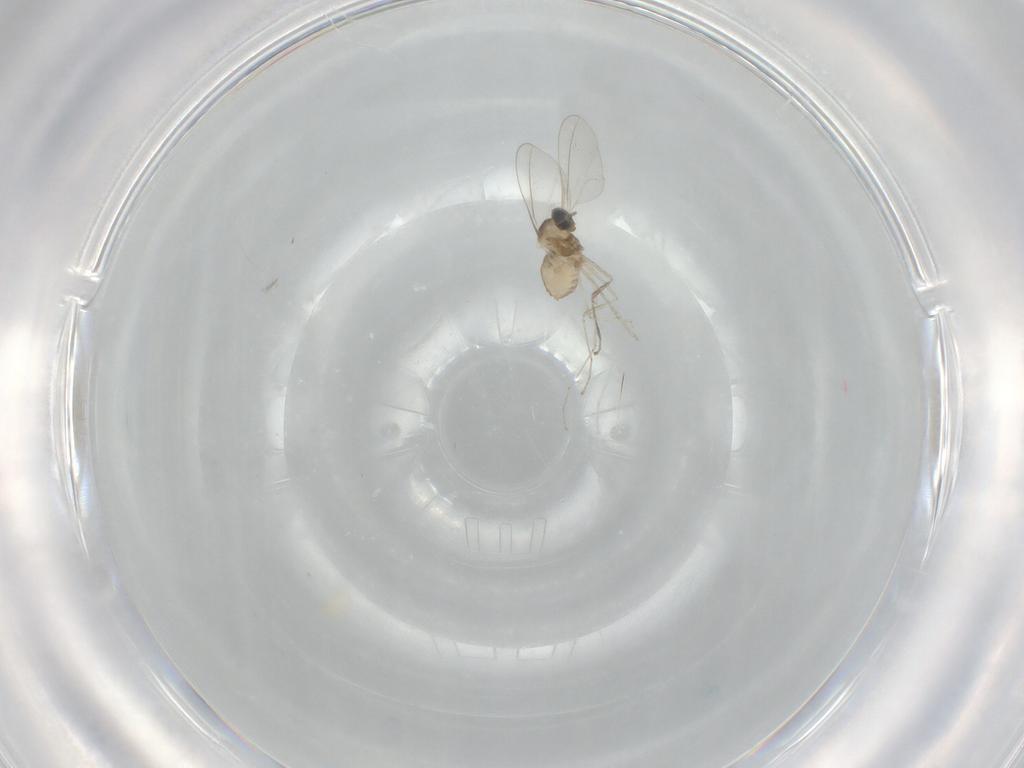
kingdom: Animalia
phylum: Arthropoda
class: Insecta
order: Diptera
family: Cecidomyiidae
